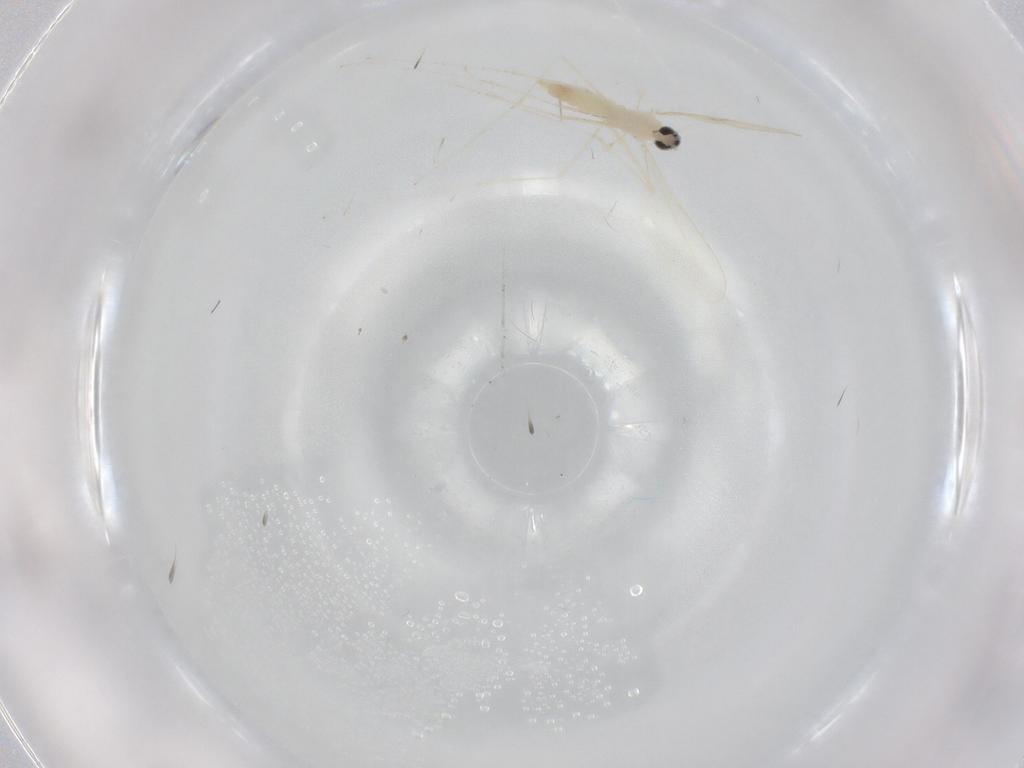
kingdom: Animalia
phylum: Arthropoda
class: Insecta
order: Diptera
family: Cecidomyiidae
